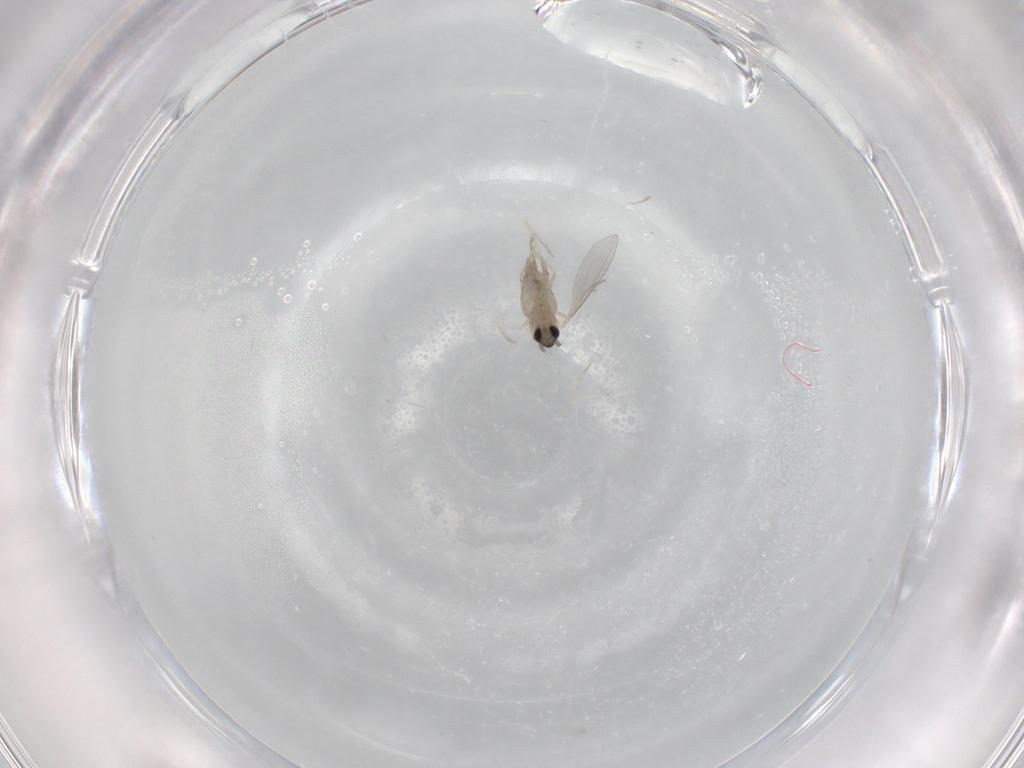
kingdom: Animalia
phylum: Arthropoda
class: Insecta
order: Diptera
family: Cecidomyiidae
